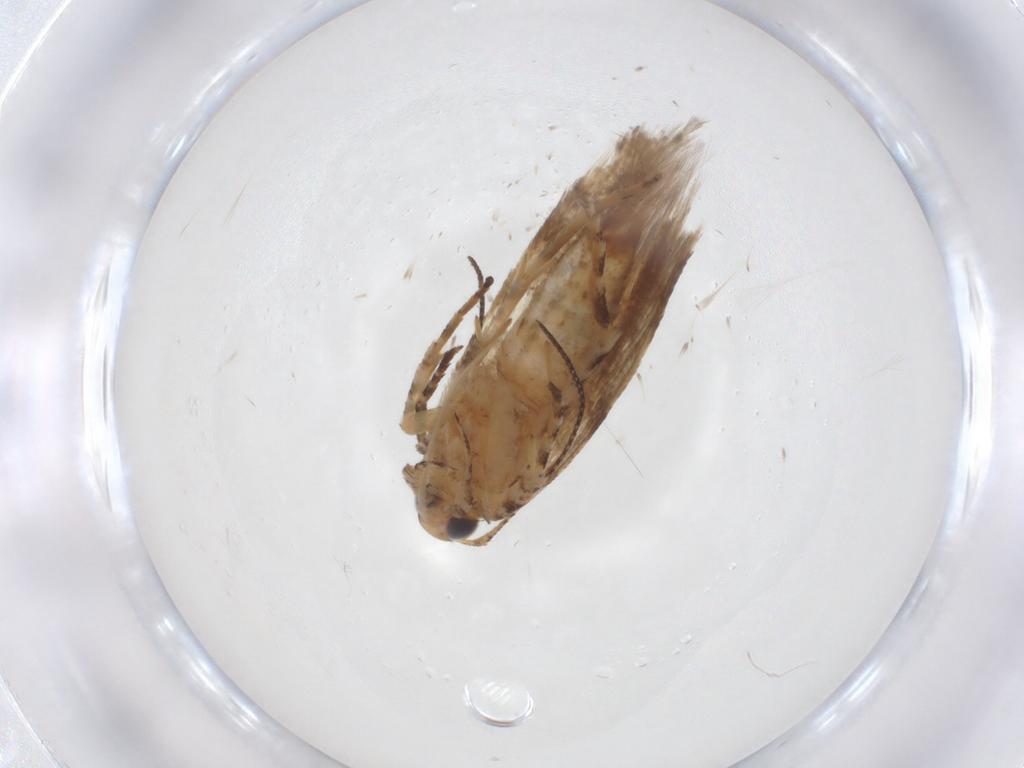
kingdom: Animalia
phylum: Arthropoda
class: Insecta
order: Lepidoptera
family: Gelechiidae
